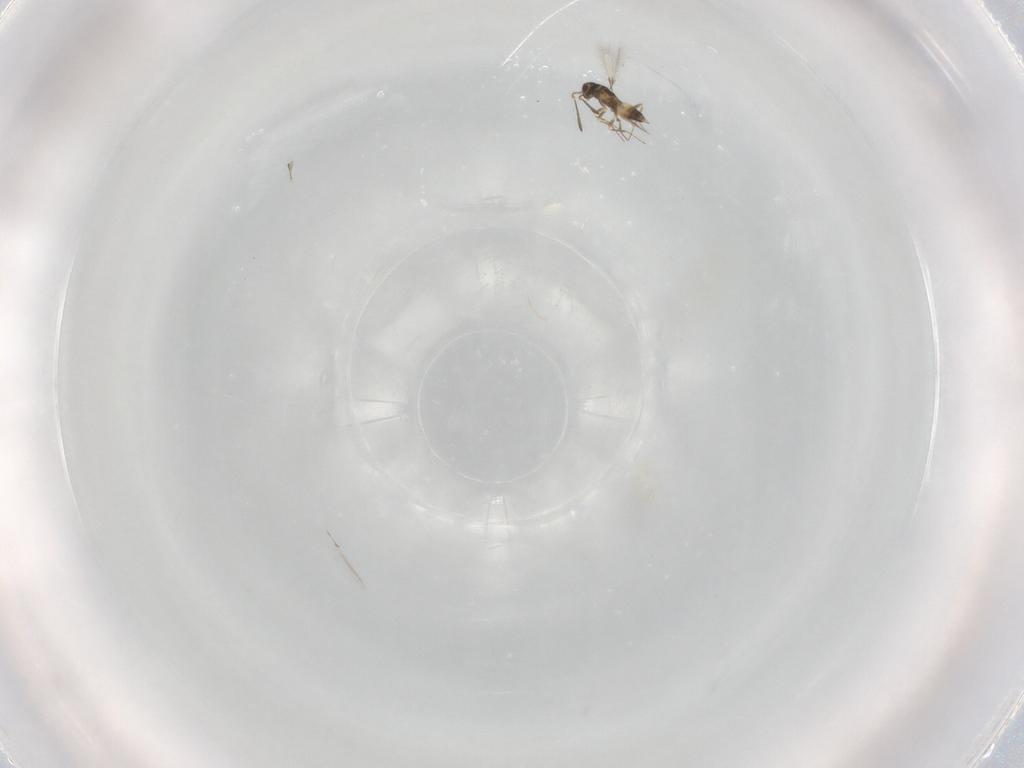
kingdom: Animalia
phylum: Arthropoda
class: Insecta
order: Hymenoptera
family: Mymaridae
